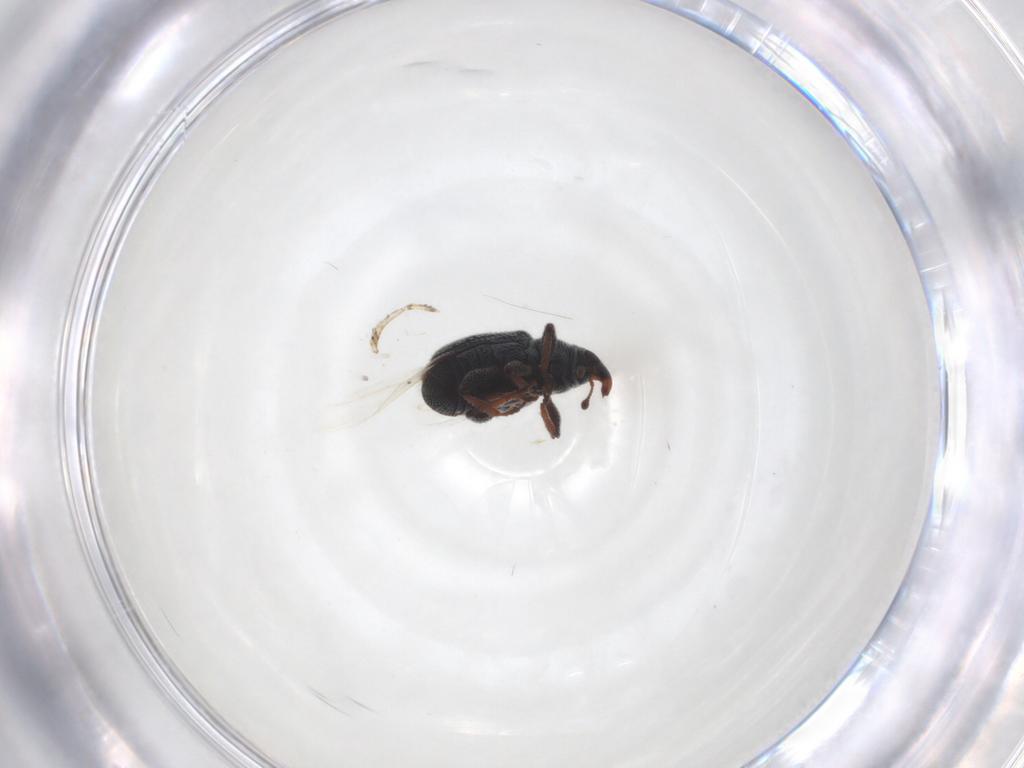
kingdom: Animalia
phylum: Arthropoda
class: Insecta
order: Coleoptera
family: Curculionidae
